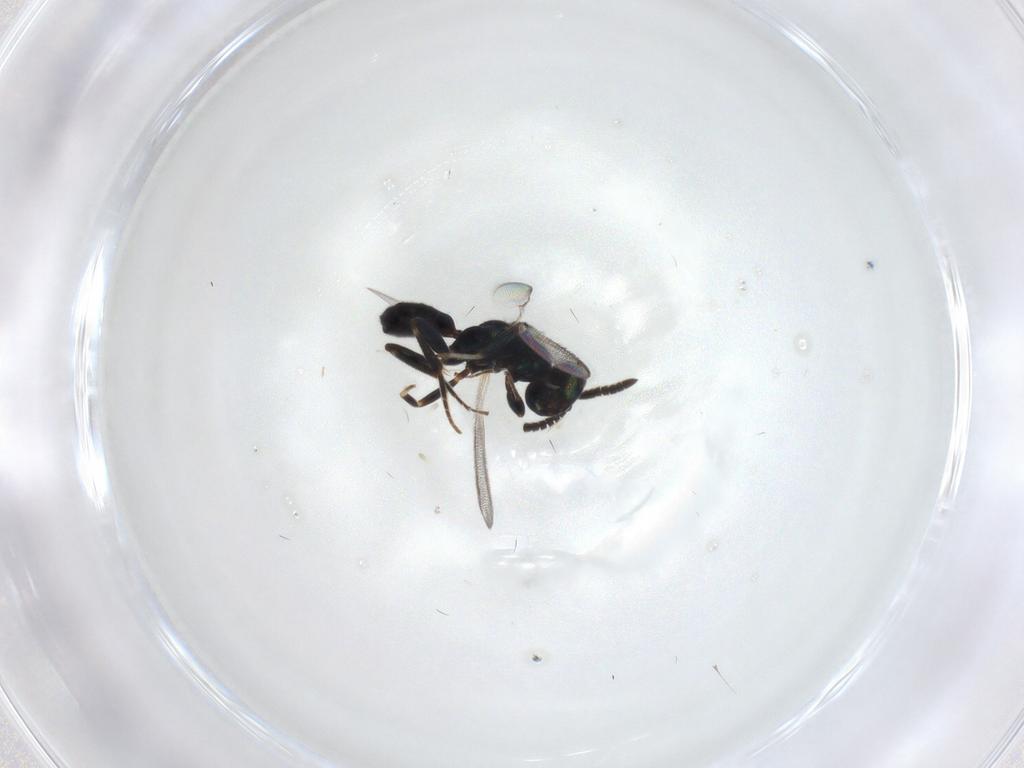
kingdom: Animalia
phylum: Arthropoda
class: Insecta
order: Hymenoptera
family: Cleonyminae
